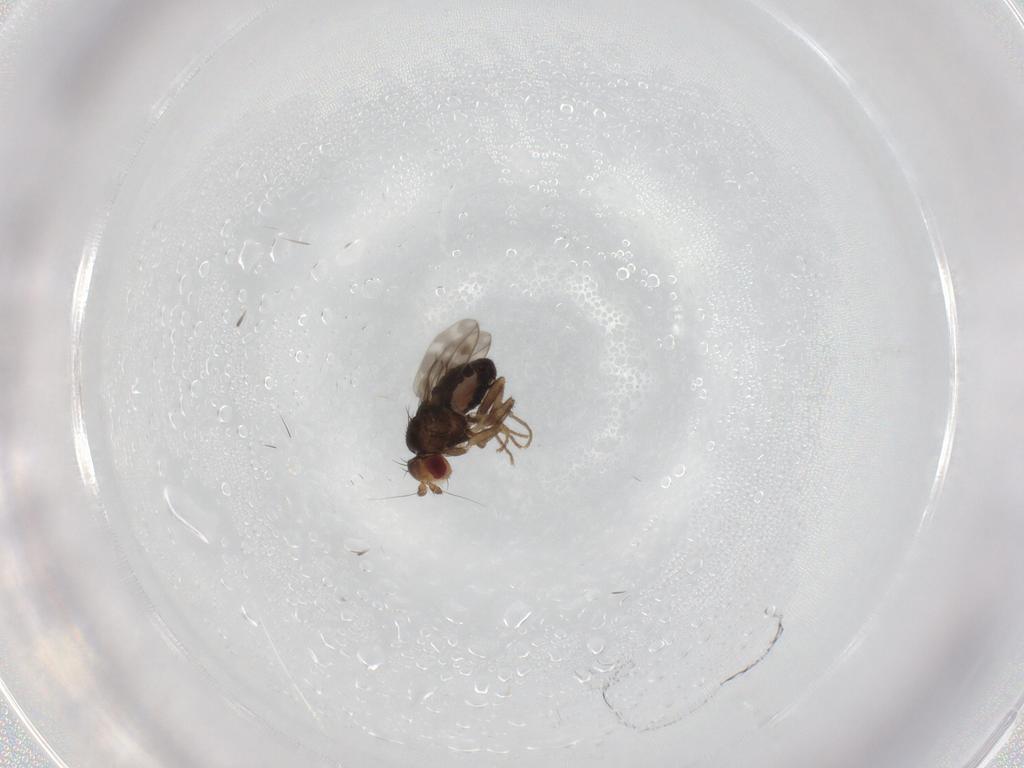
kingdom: Animalia
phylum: Arthropoda
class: Insecta
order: Diptera
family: Sphaeroceridae
